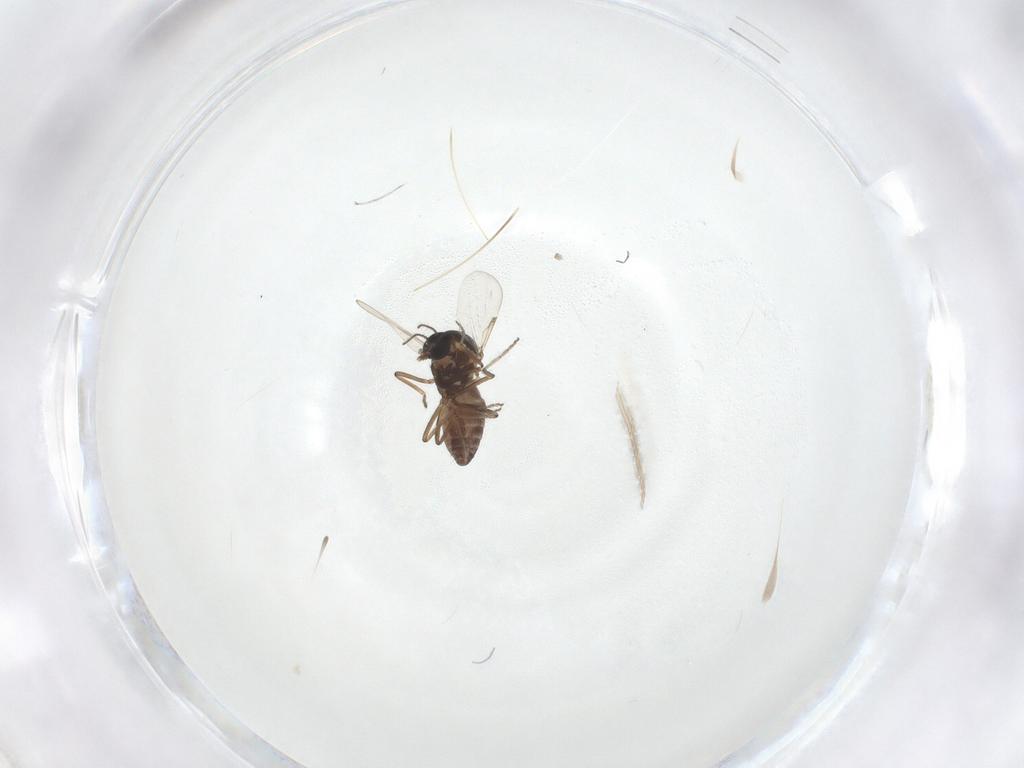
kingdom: Animalia
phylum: Arthropoda
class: Insecta
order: Diptera
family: Ceratopogonidae
